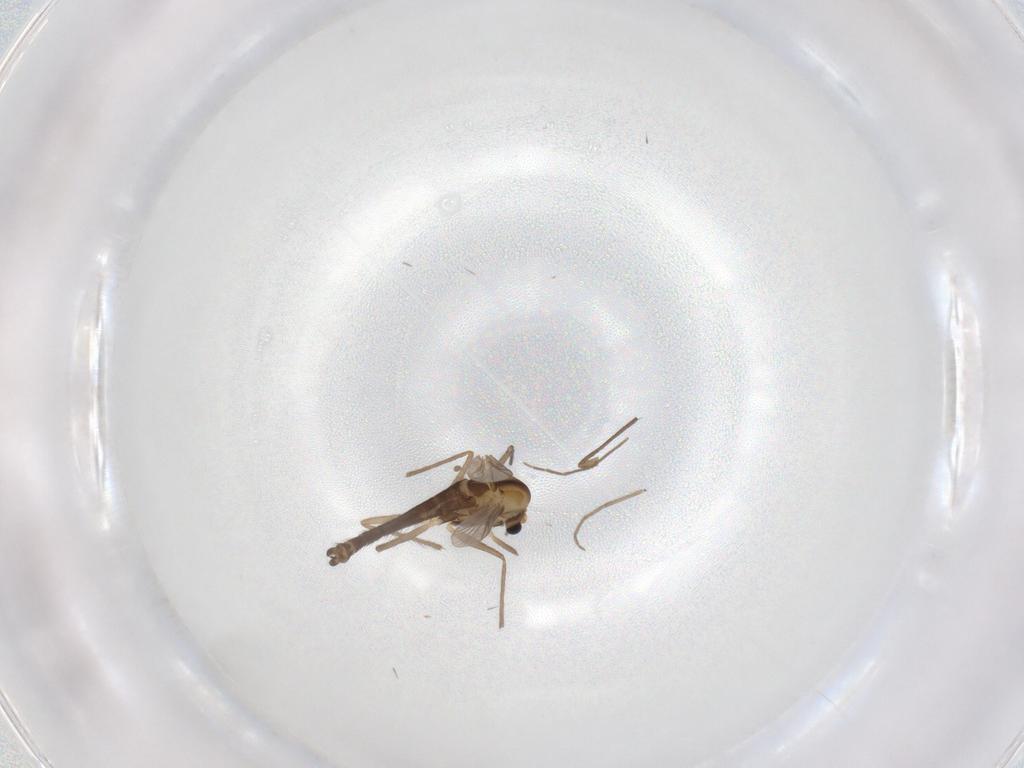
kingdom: Animalia
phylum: Arthropoda
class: Insecta
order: Diptera
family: Chironomidae
